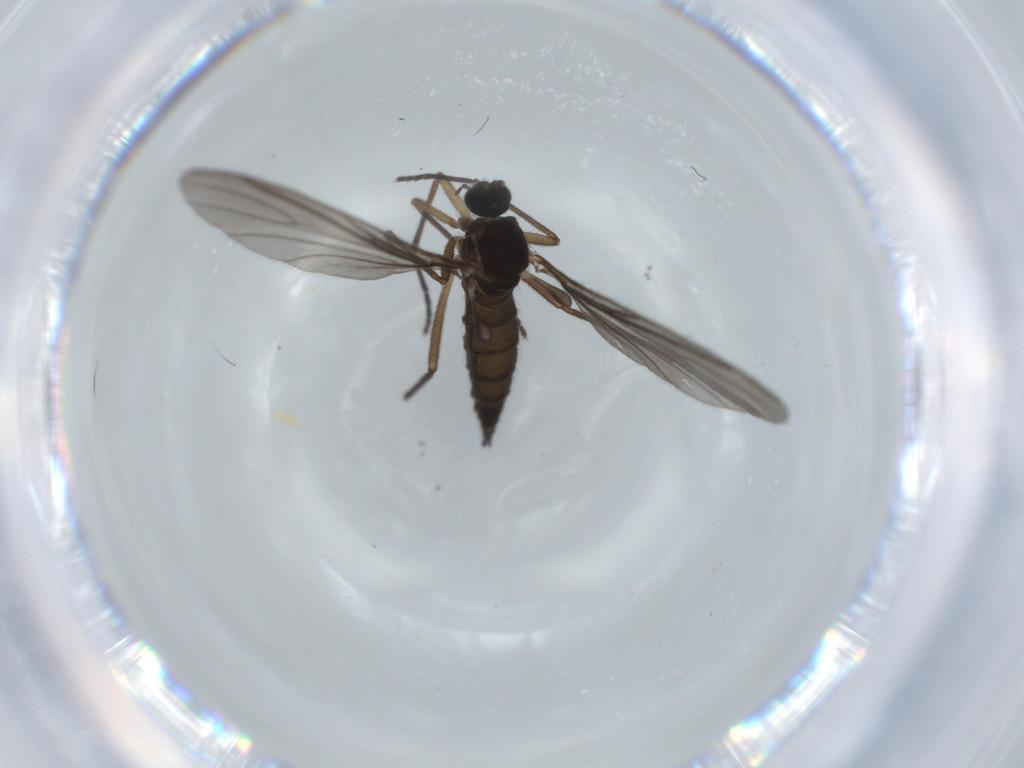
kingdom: Animalia
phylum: Arthropoda
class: Insecta
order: Diptera
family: Sciaridae
